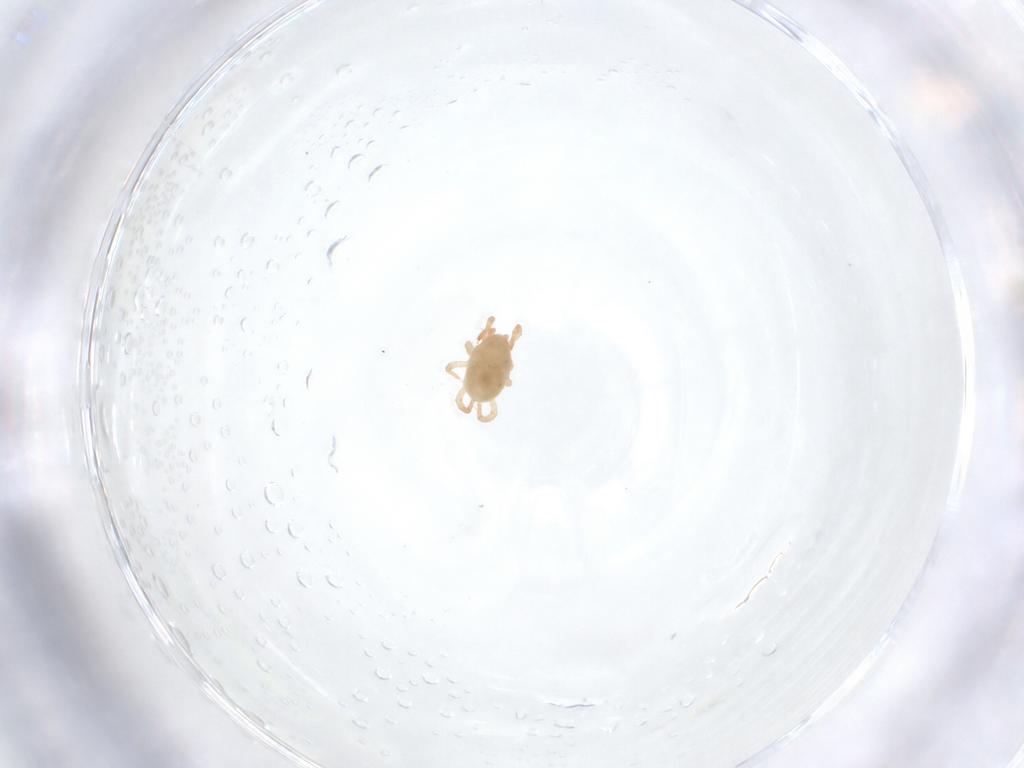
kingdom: Animalia
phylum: Arthropoda
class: Arachnida
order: Mesostigmata
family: Parasitidae
